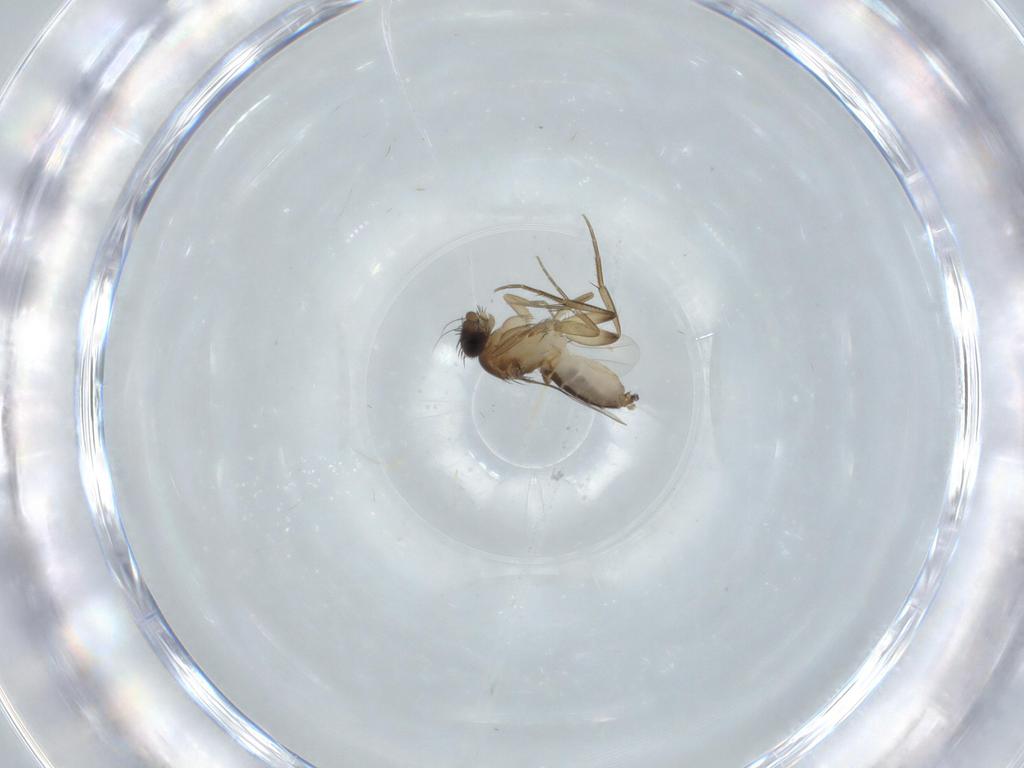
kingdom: Animalia
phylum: Arthropoda
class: Insecta
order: Diptera
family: Phoridae
